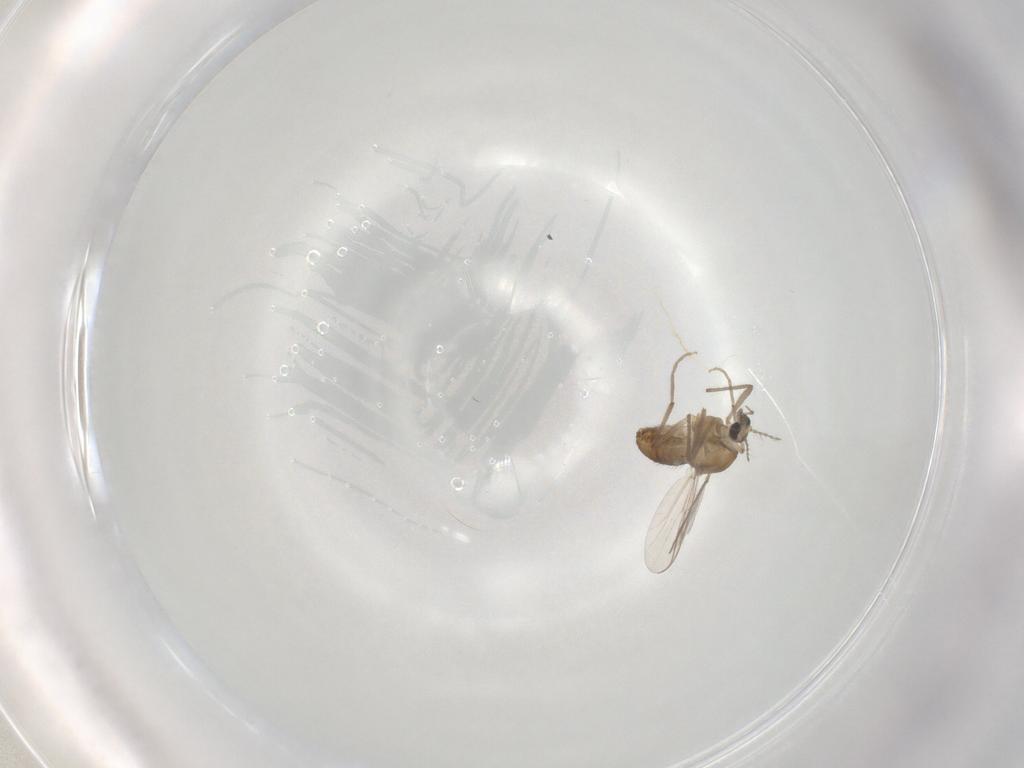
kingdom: Animalia
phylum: Arthropoda
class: Insecta
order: Diptera
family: Chironomidae
